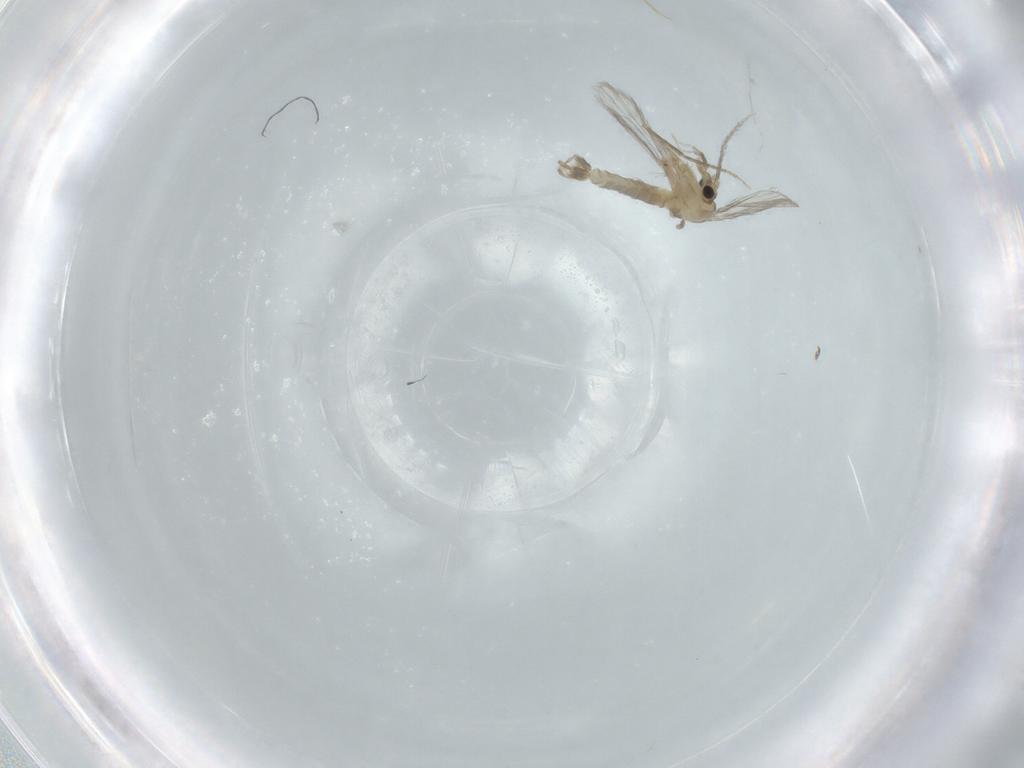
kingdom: Animalia
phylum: Arthropoda
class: Insecta
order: Diptera
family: Psychodidae
